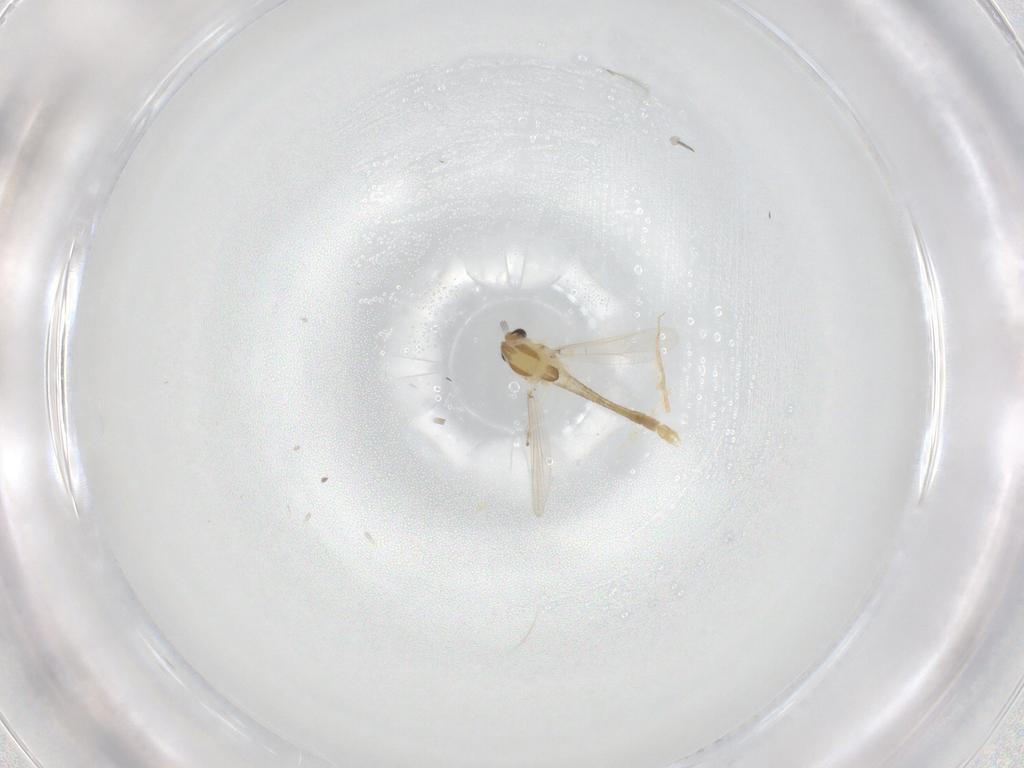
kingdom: Animalia
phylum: Arthropoda
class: Insecta
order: Diptera
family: Chironomidae
